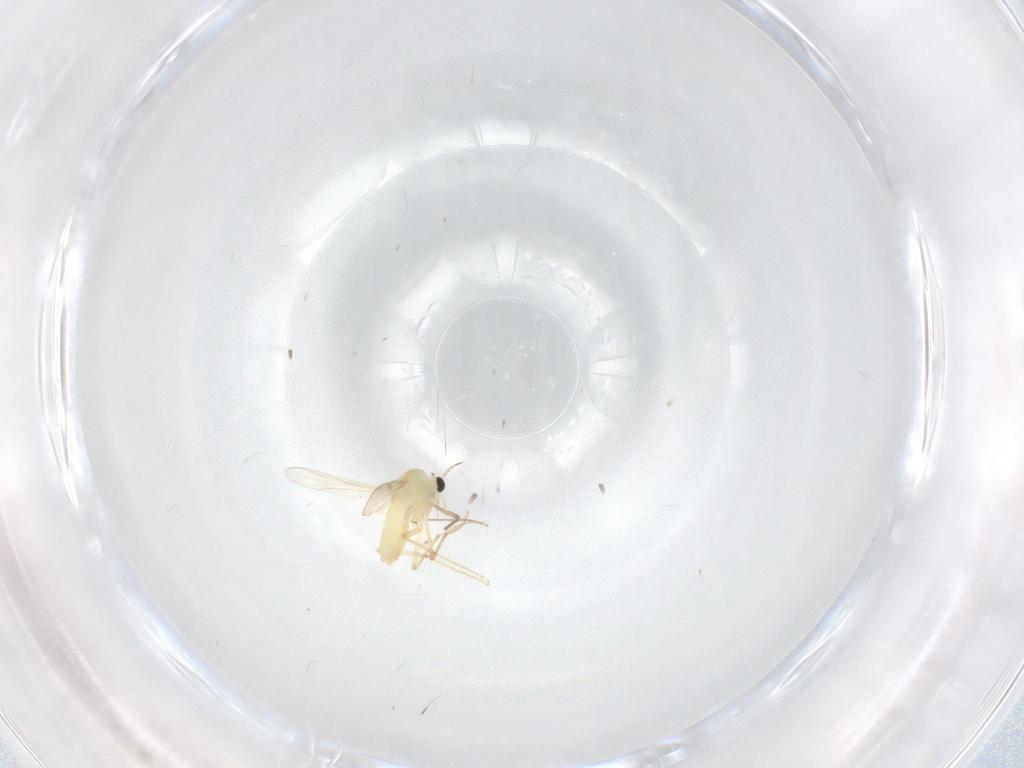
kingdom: Animalia
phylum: Arthropoda
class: Insecta
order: Diptera
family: Chironomidae
